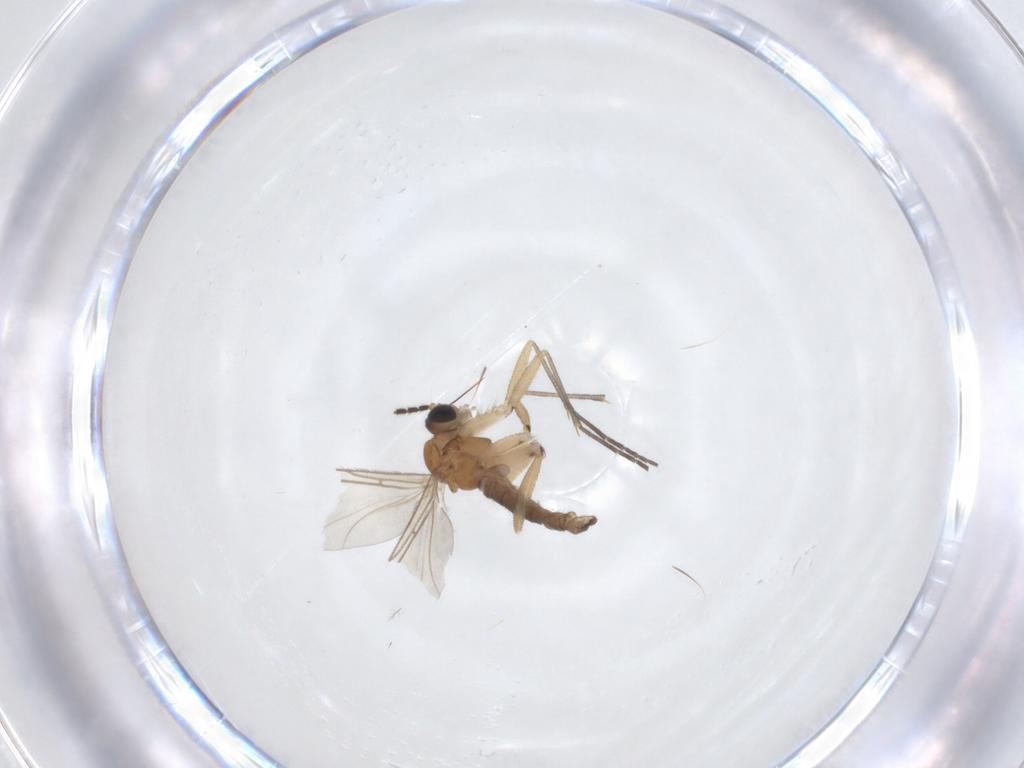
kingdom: Animalia
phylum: Arthropoda
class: Insecta
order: Diptera
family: Sciaridae
